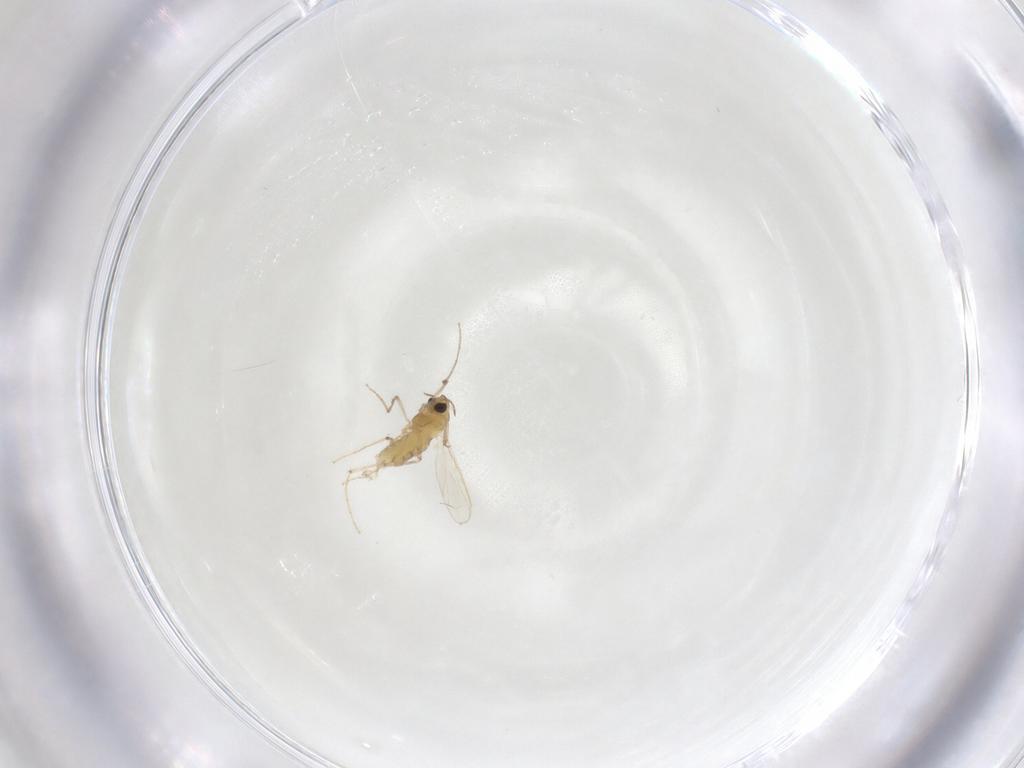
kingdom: Animalia
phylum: Arthropoda
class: Insecta
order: Diptera
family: Chironomidae
